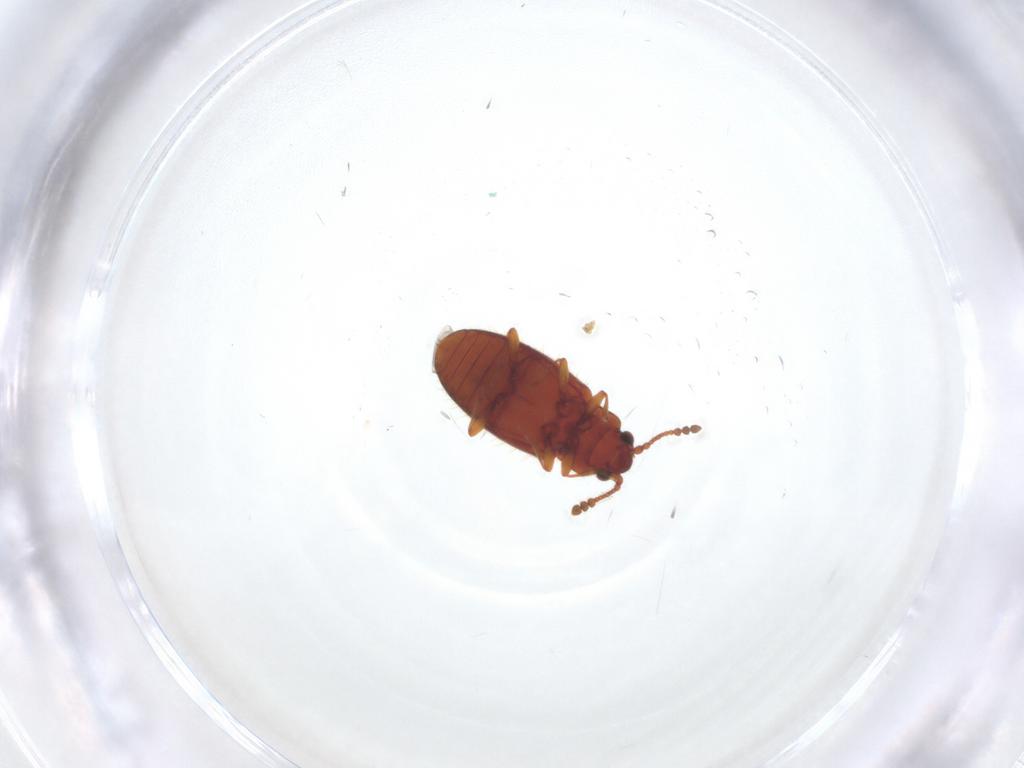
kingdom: Animalia
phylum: Arthropoda
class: Insecta
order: Coleoptera
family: Cryptophagidae
